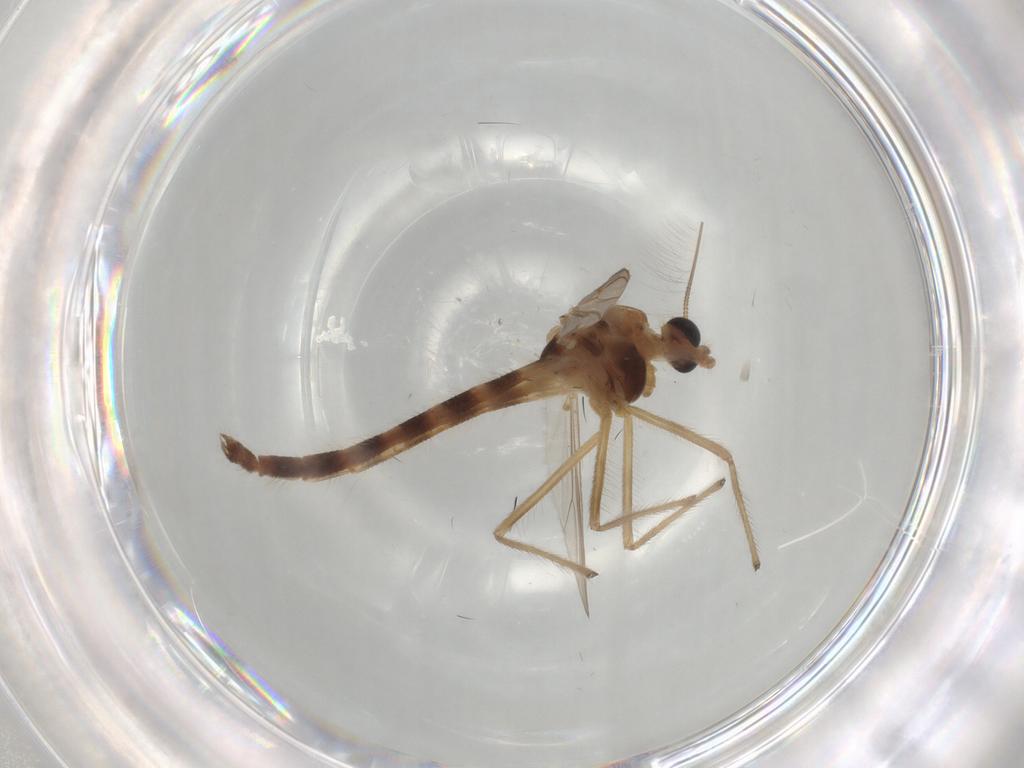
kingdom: Animalia
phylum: Arthropoda
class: Insecta
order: Diptera
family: Chironomidae
